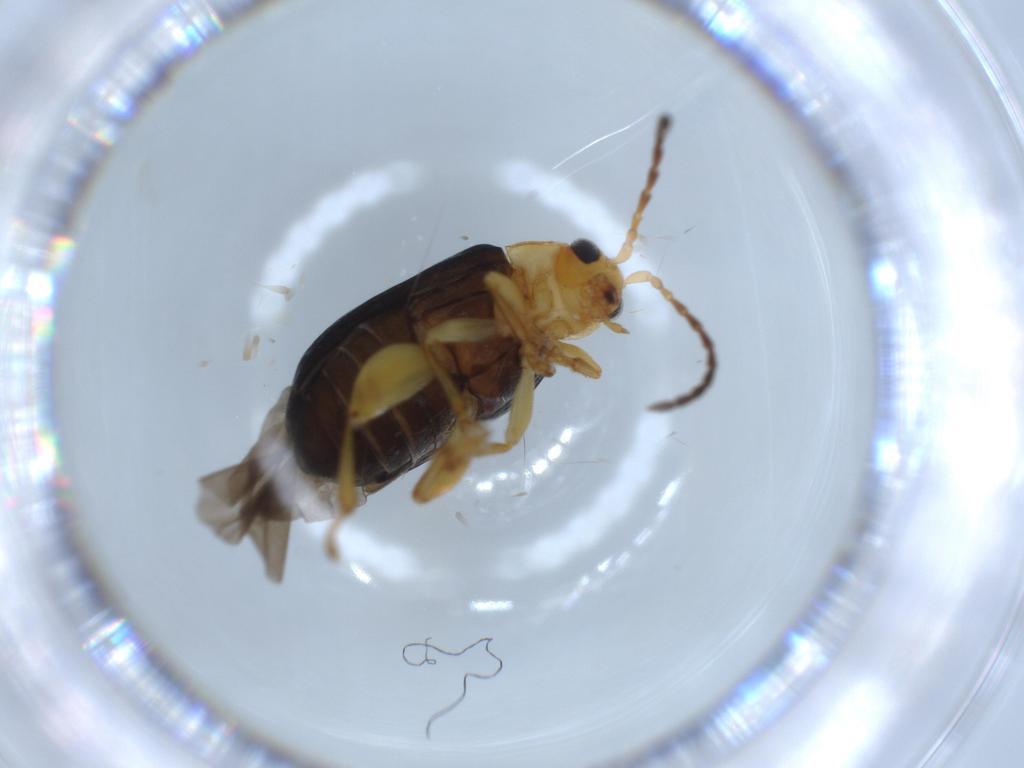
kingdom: Animalia
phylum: Arthropoda
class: Insecta
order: Coleoptera
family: Chrysomelidae
